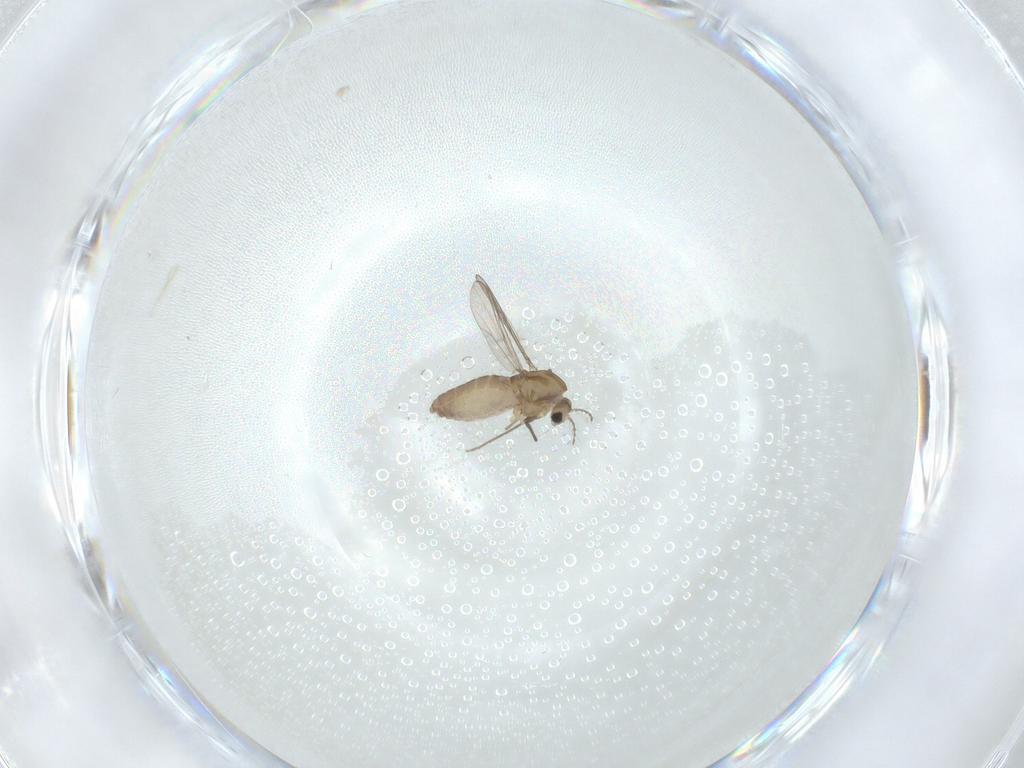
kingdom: Animalia
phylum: Arthropoda
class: Insecta
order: Diptera
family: Chironomidae
